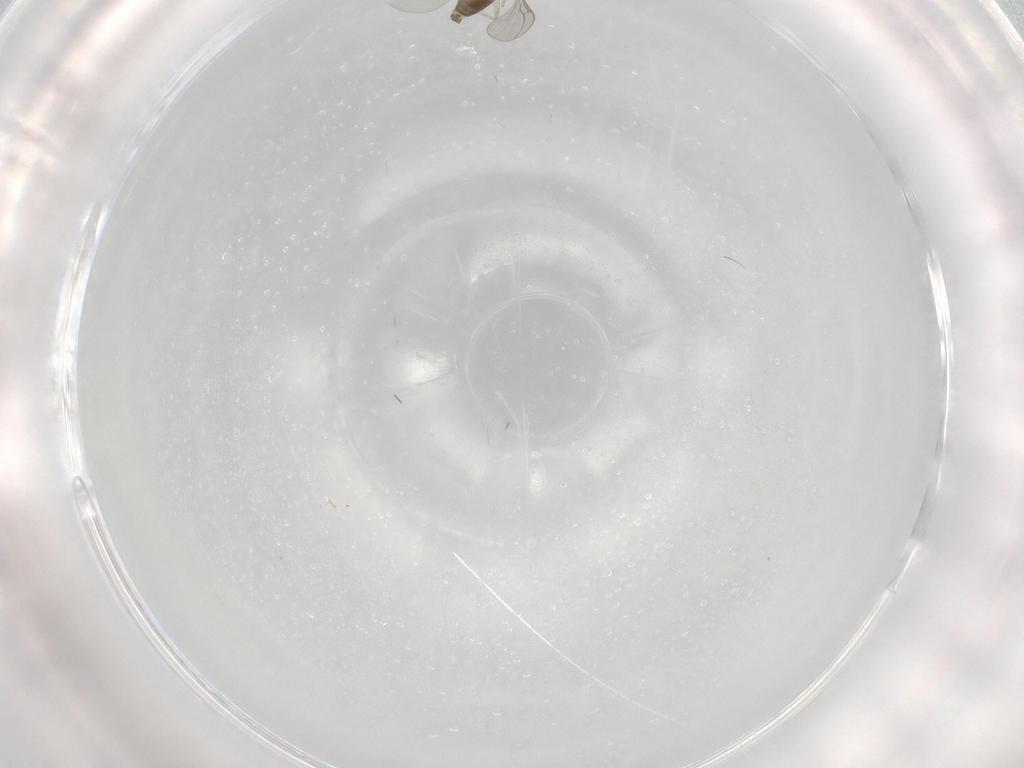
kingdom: Animalia
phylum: Arthropoda
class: Insecta
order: Diptera
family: Cecidomyiidae
